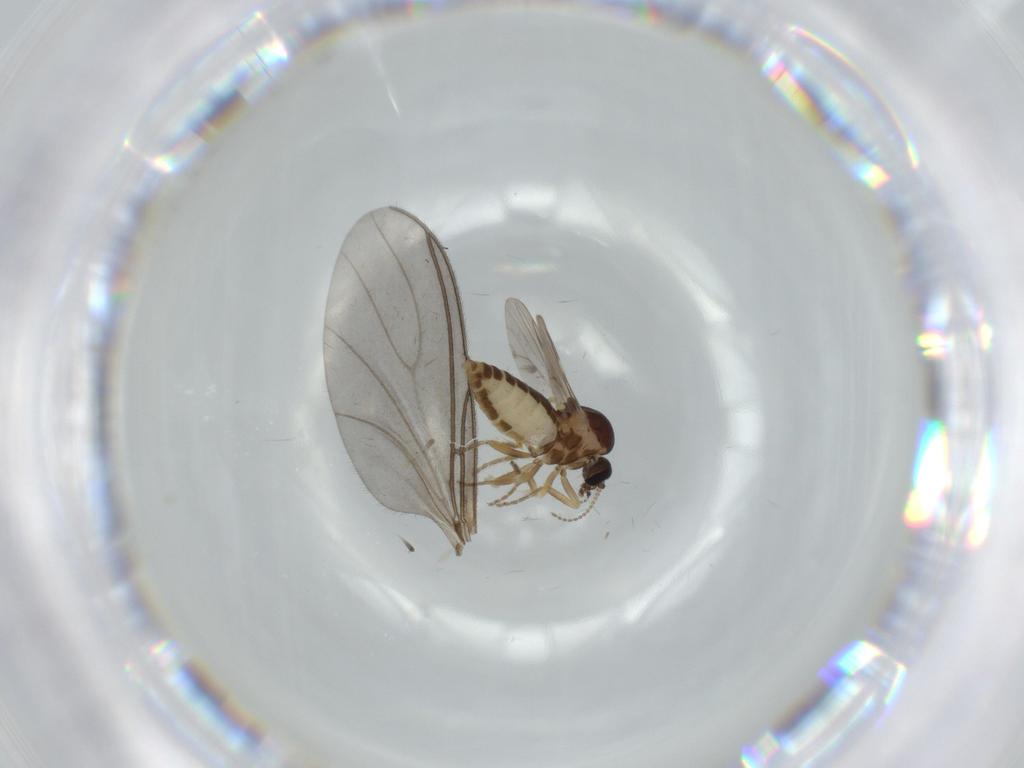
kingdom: Animalia
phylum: Arthropoda
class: Insecta
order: Diptera
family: Ceratopogonidae
